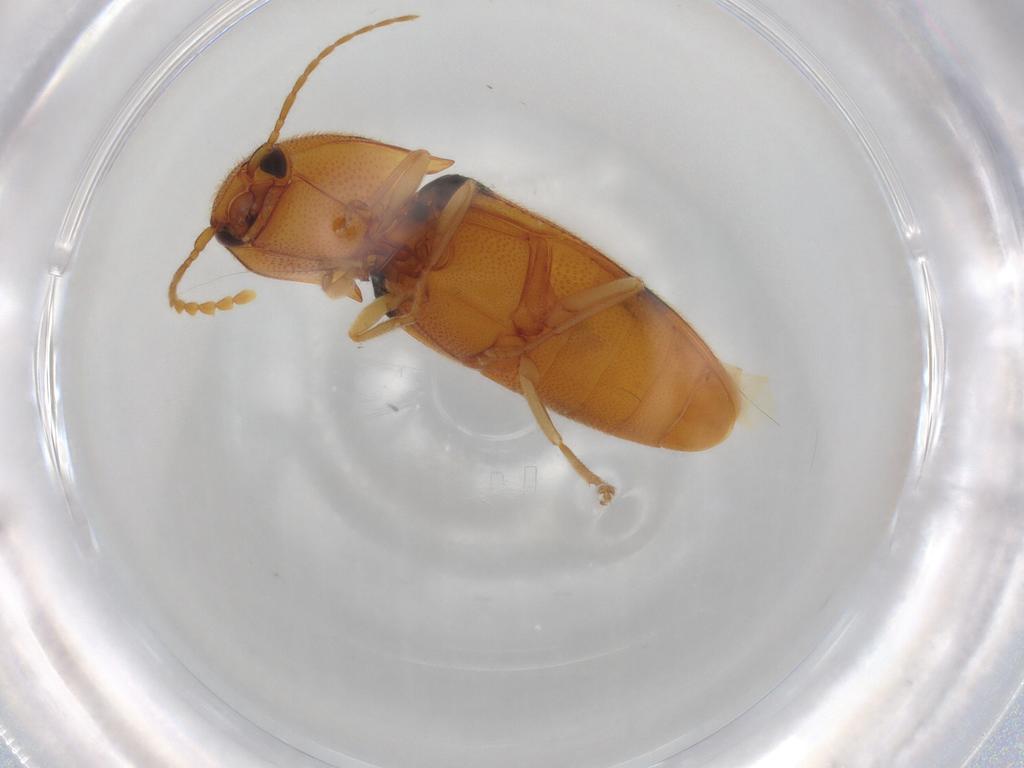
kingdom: Animalia
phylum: Arthropoda
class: Insecta
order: Coleoptera
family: Elateridae
